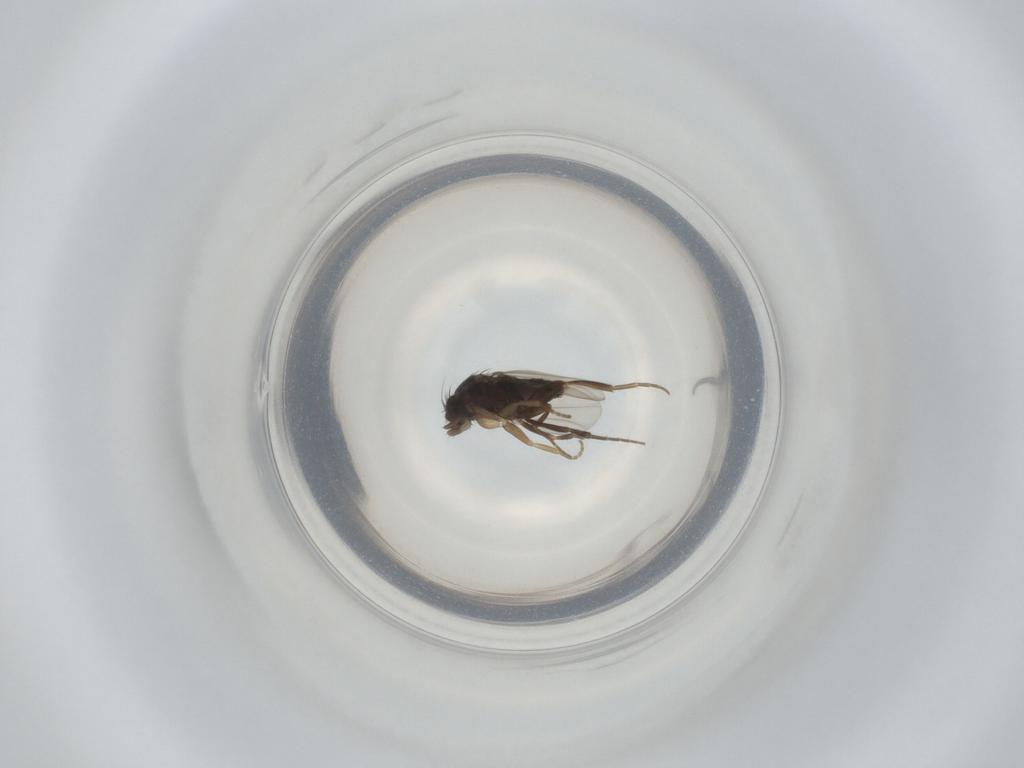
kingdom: Animalia
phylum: Arthropoda
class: Insecta
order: Diptera
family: Phoridae
